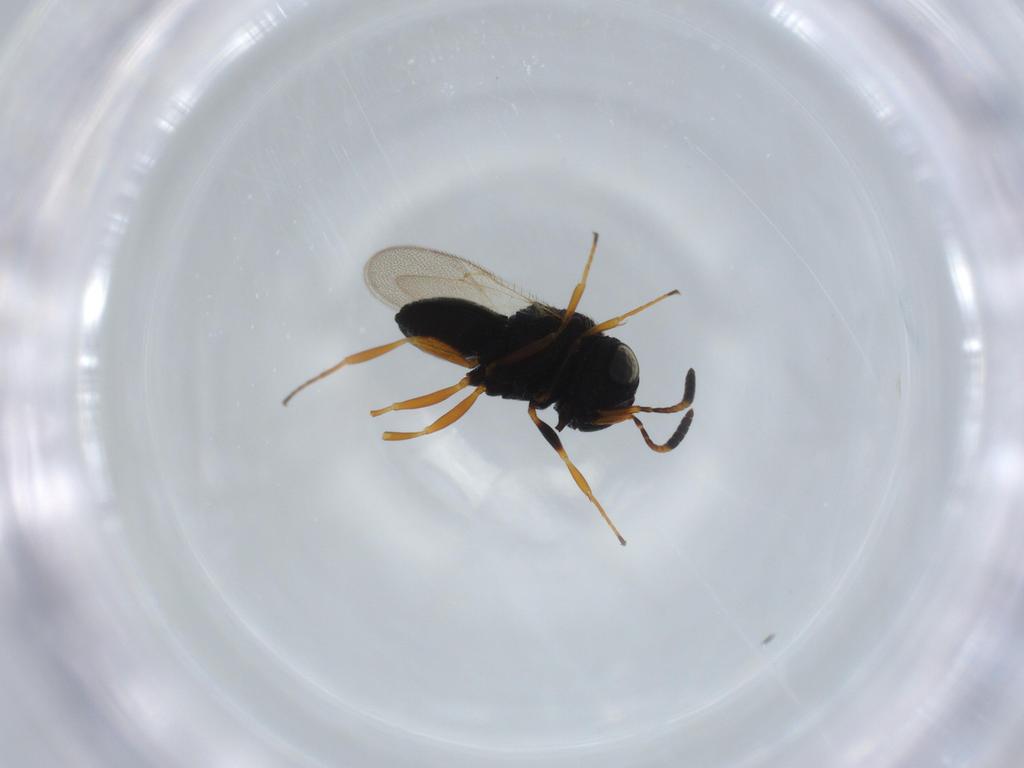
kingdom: Animalia
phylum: Arthropoda
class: Insecta
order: Hymenoptera
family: Scelionidae
